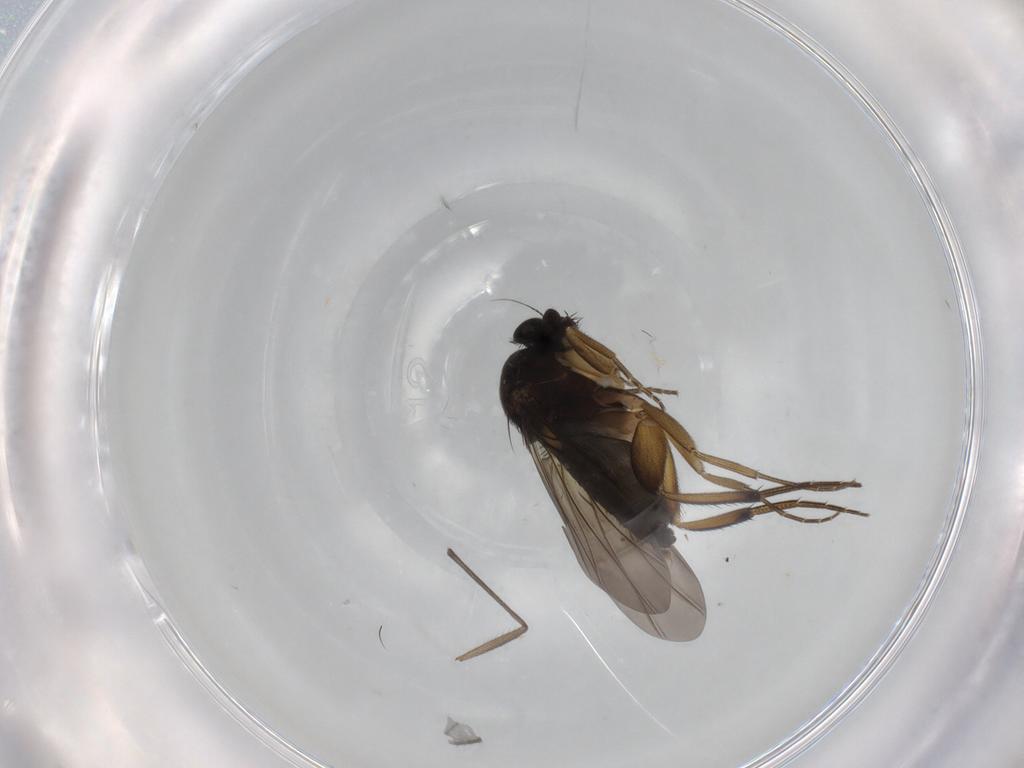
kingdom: Animalia
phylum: Arthropoda
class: Insecta
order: Diptera
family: Phoridae
